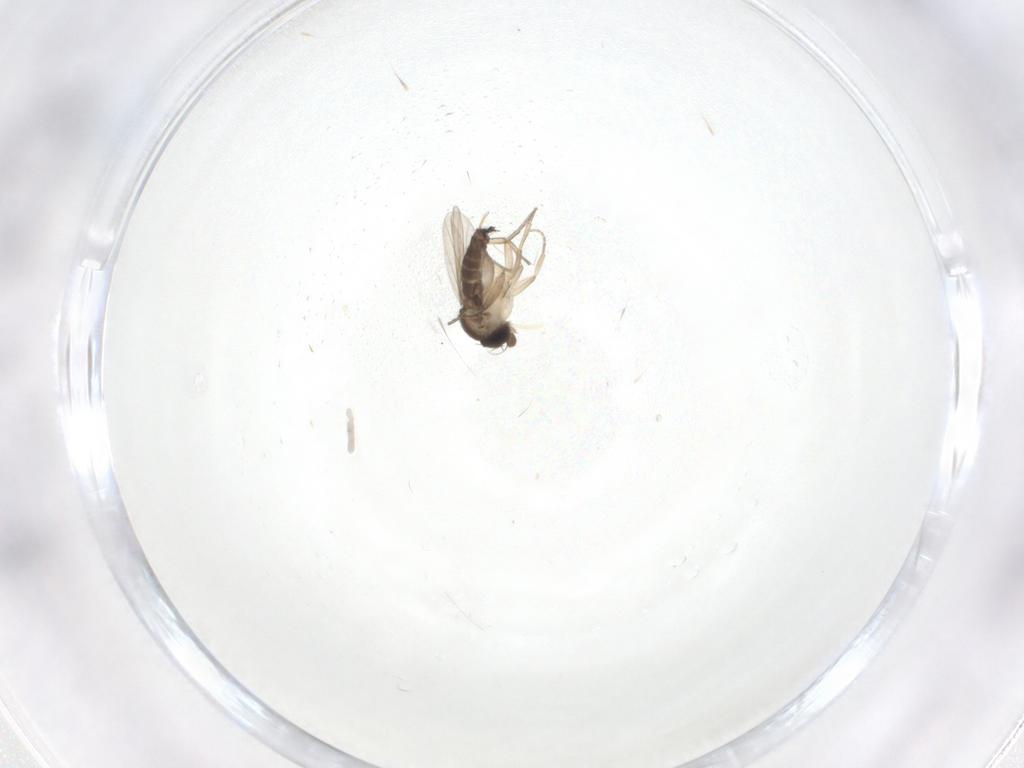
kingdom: Animalia
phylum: Arthropoda
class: Insecta
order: Diptera
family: Phoridae
